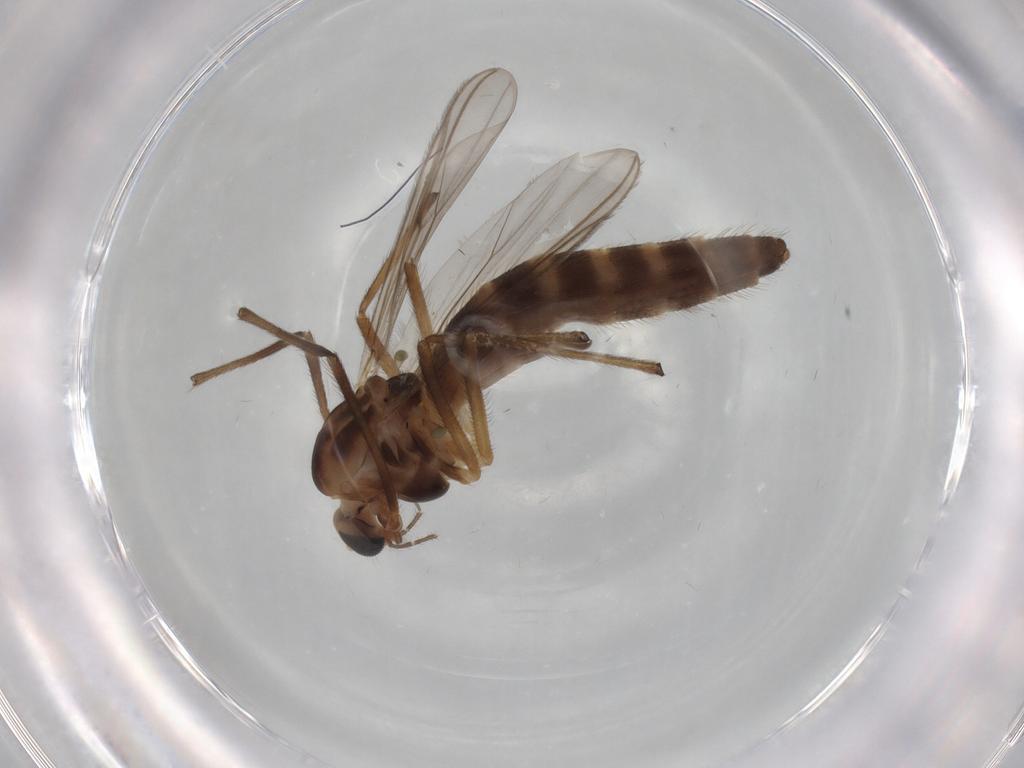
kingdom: Animalia
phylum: Arthropoda
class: Insecta
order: Diptera
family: Chironomidae
